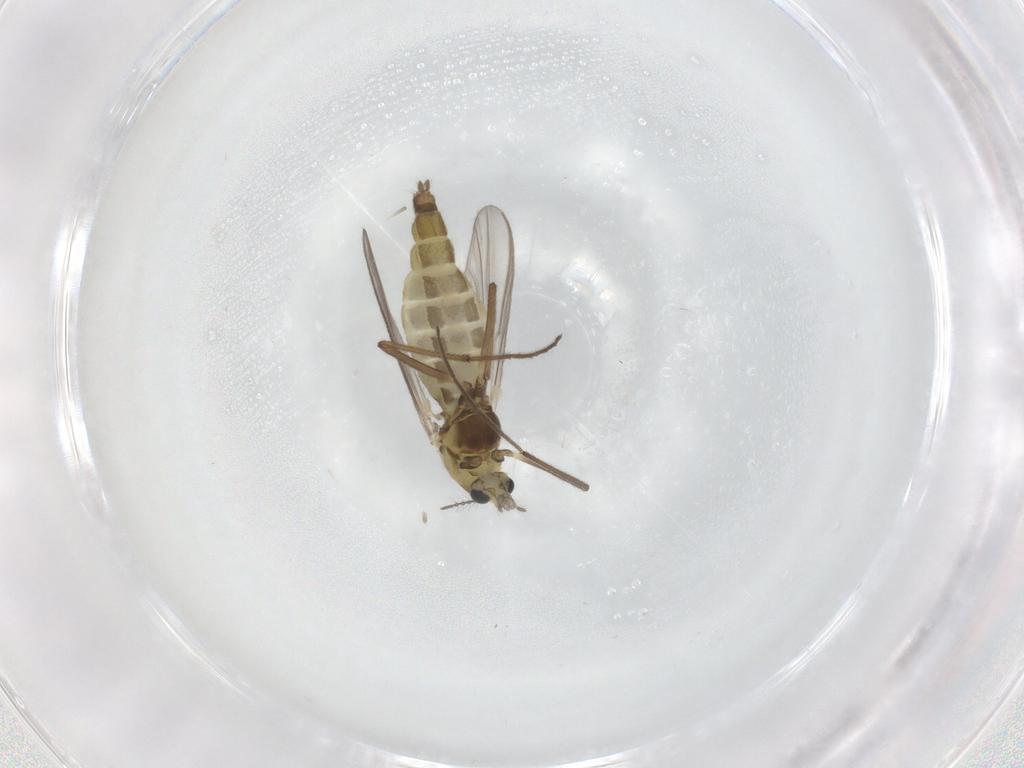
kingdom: Animalia
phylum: Arthropoda
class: Insecta
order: Diptera
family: Chironomidae
